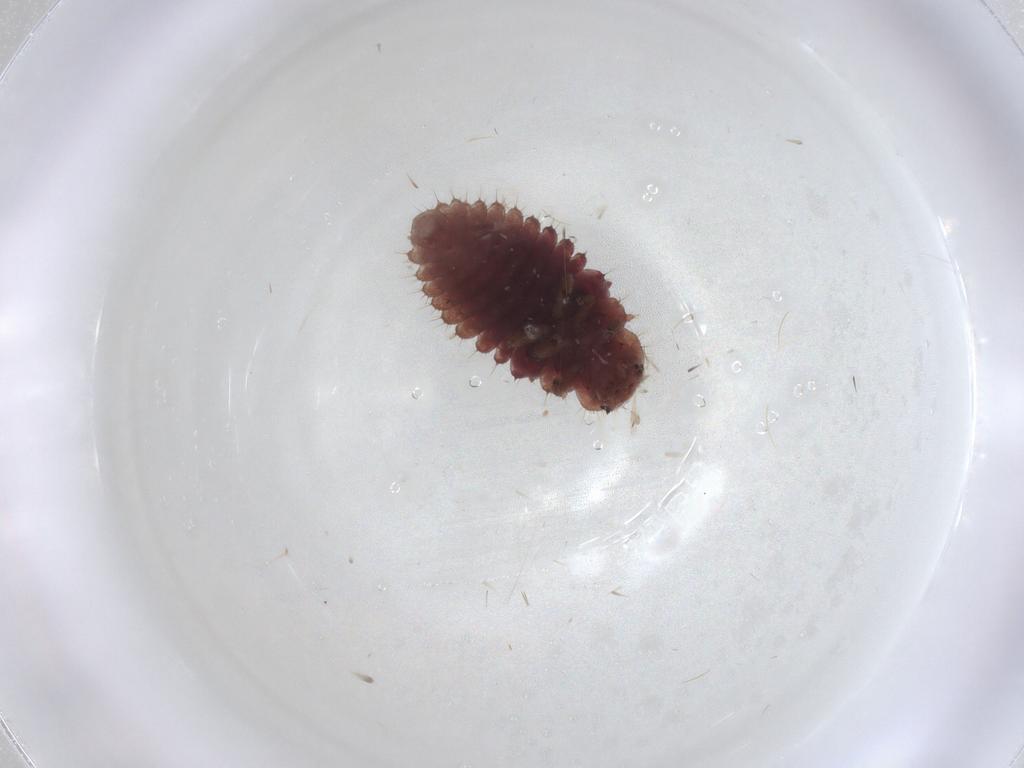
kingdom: Animalia
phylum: Arthropoda
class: Insecta
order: Coleoptera
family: Coccinellidae
